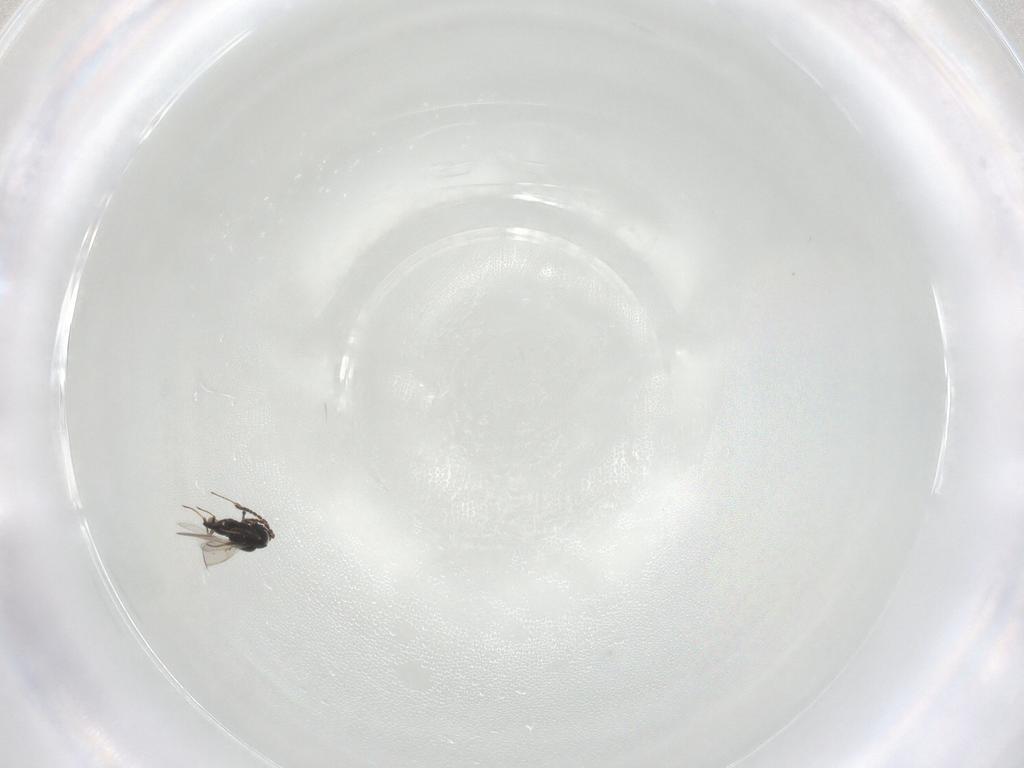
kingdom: Animalia
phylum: Arthropoda
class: Insecta
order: Hymenoptera
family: Scelionidae
